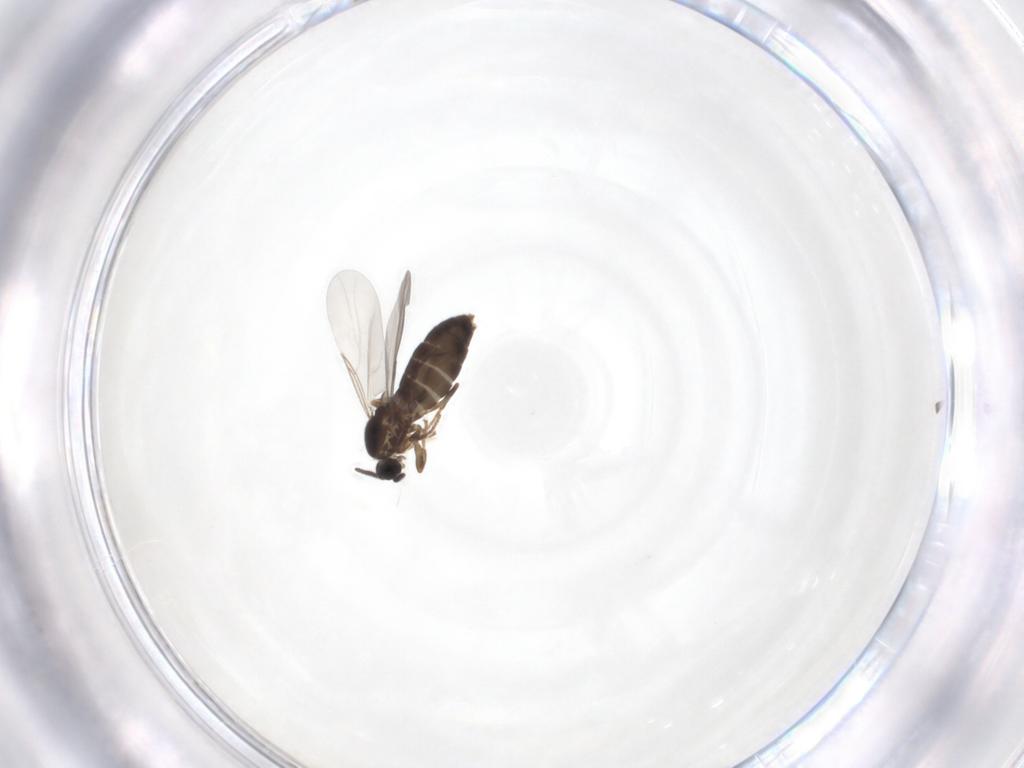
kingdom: Animalia
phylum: Arthropoda
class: Insecta
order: Diptera
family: Scatopsidae
